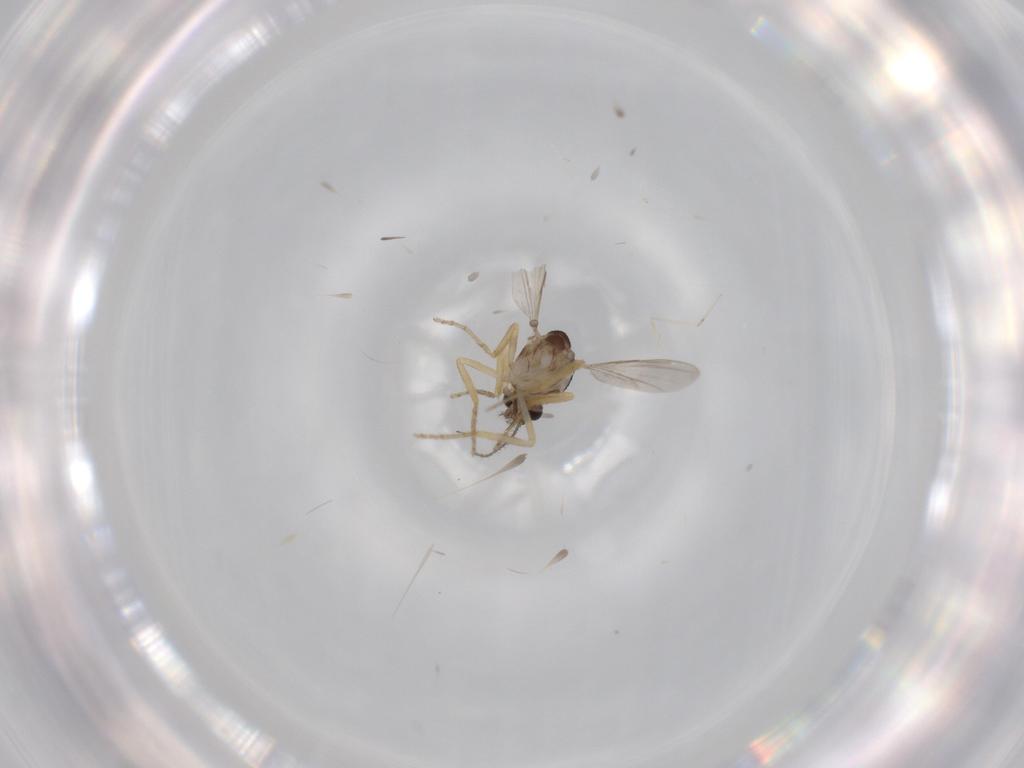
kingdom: Animalia
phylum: Arthropoda
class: Insecta
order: Diptera
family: Ceratopogonidae
